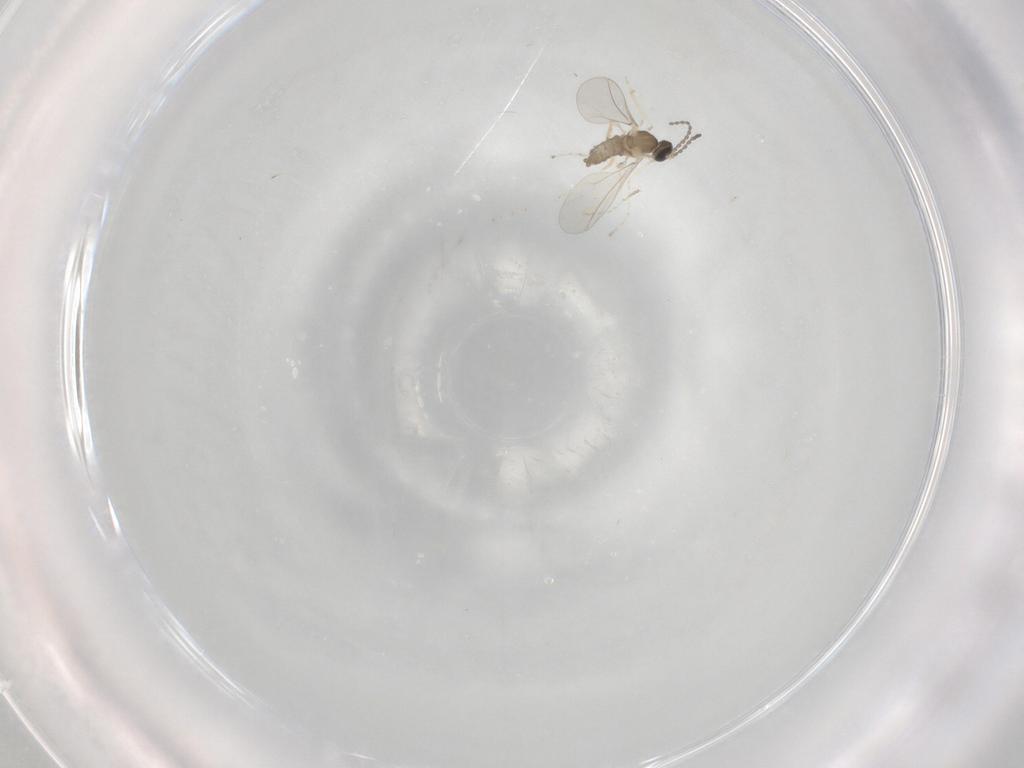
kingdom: Animalia
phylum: Arthropoda
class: Insecta
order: Diptera
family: Cecidomyiidae
